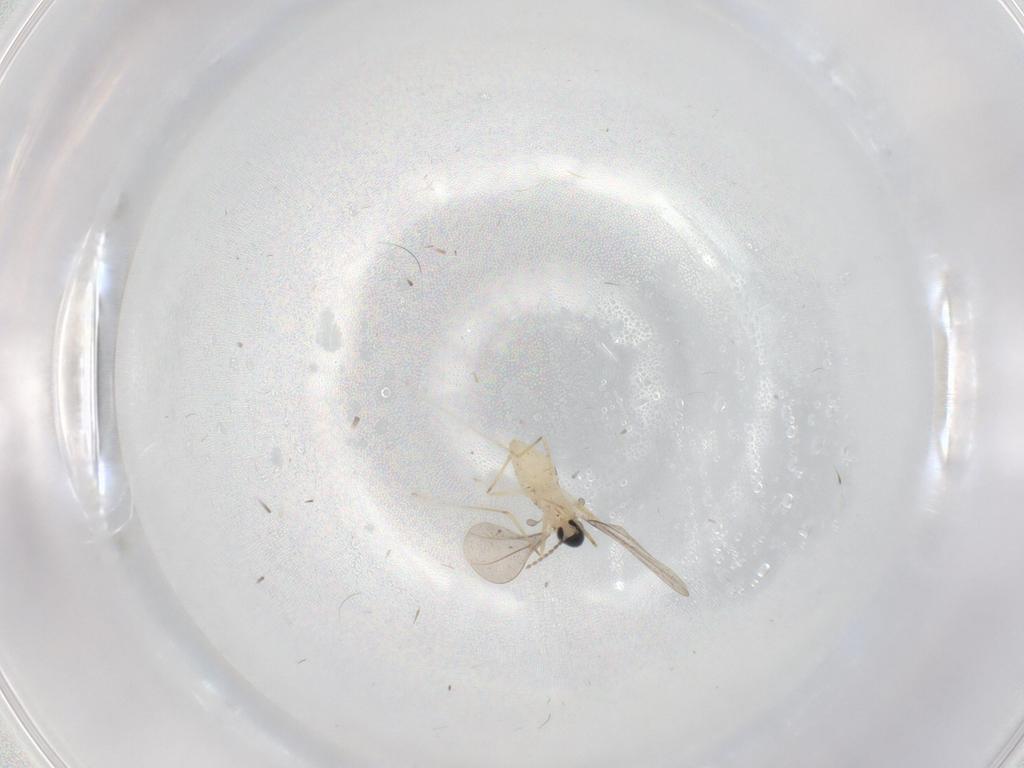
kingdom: Animalia
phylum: Arthropoda
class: Insecta
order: Diptera
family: Cecidomyiidae
